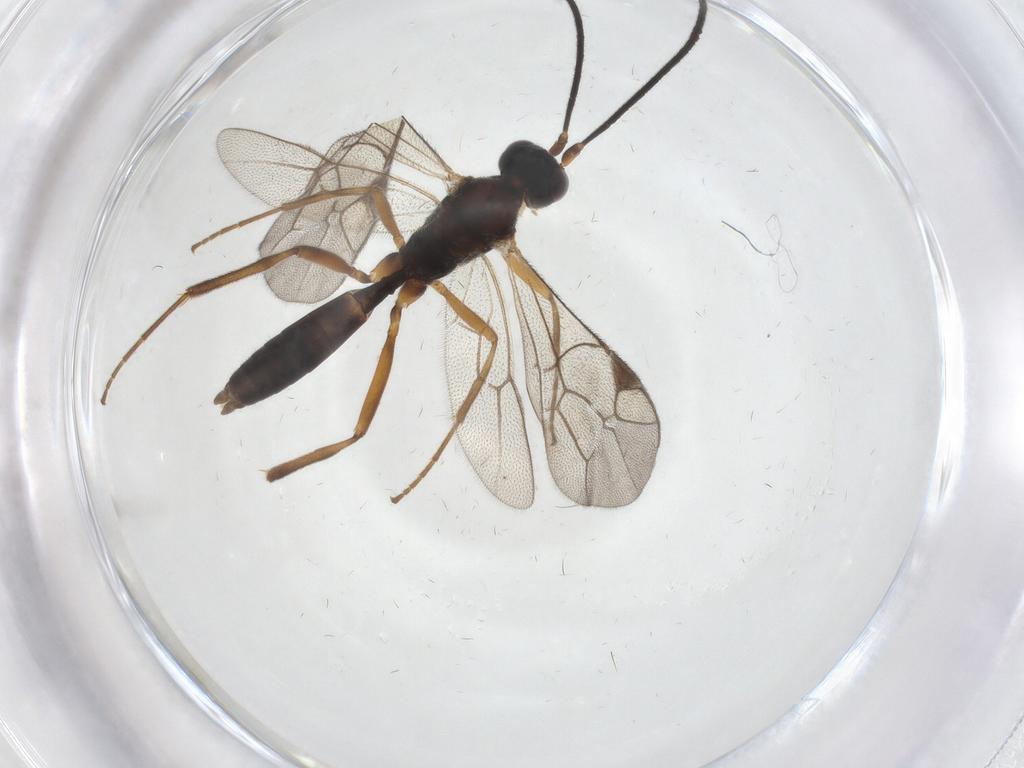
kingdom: Animalia
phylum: Arthropoda
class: Insecta
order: Hymenoptera
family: Ichneumonidae
